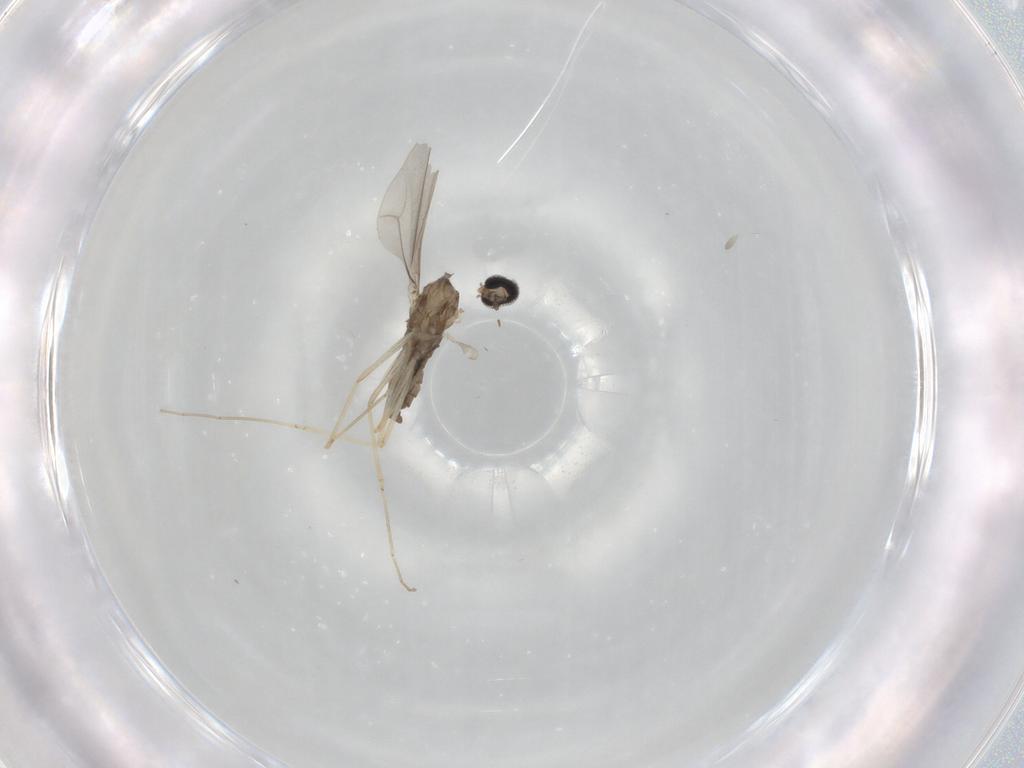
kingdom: Animalia
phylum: Arthropoda
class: Insecta
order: Diptera
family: Cecidomyiidae
